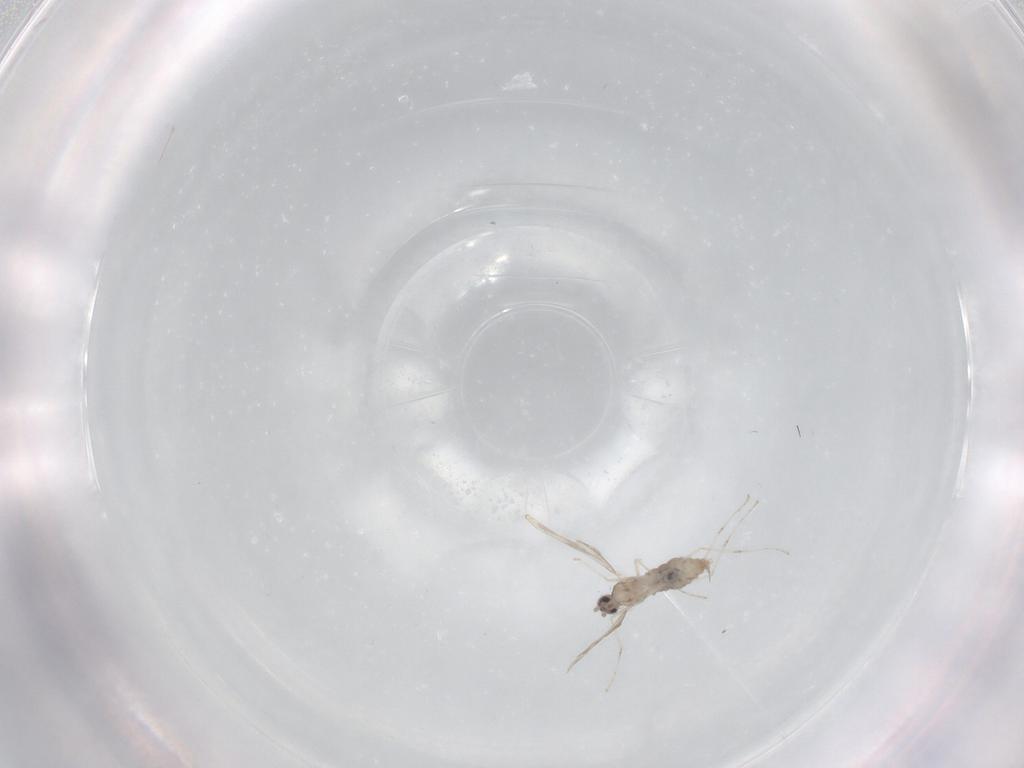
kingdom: Animalia
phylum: Arthropoda
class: Insecta
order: Diptera
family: Cecidomyiidae
